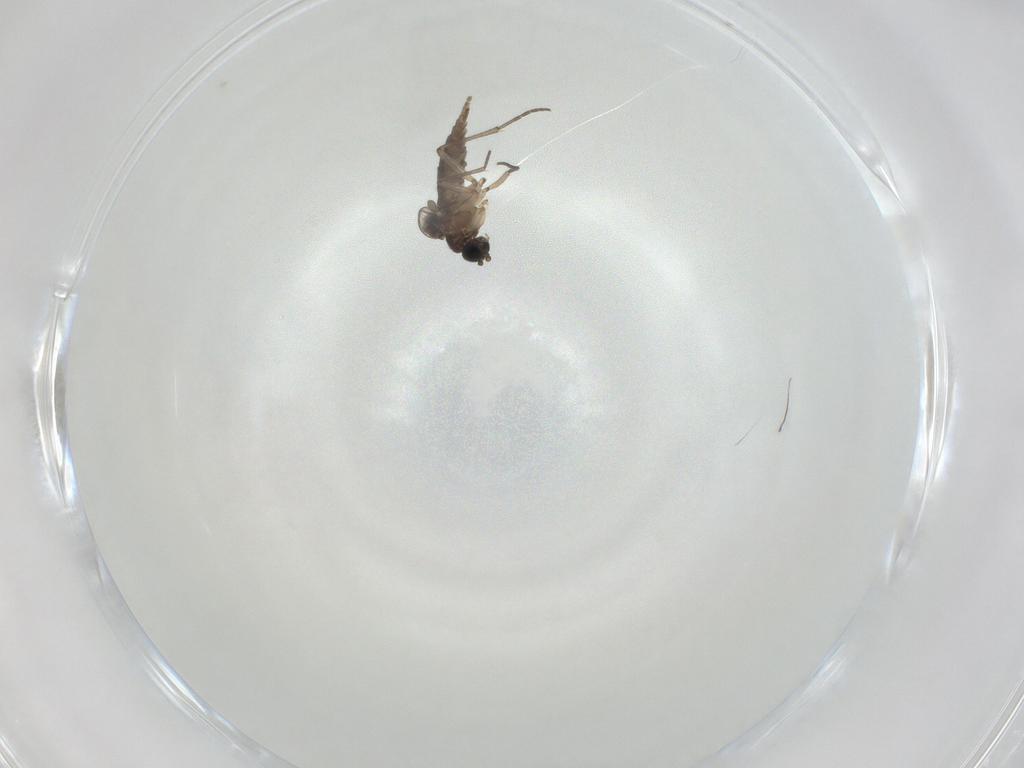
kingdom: Animalia
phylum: Arthropoda
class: Insecta
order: Diptera
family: Sciaridae
